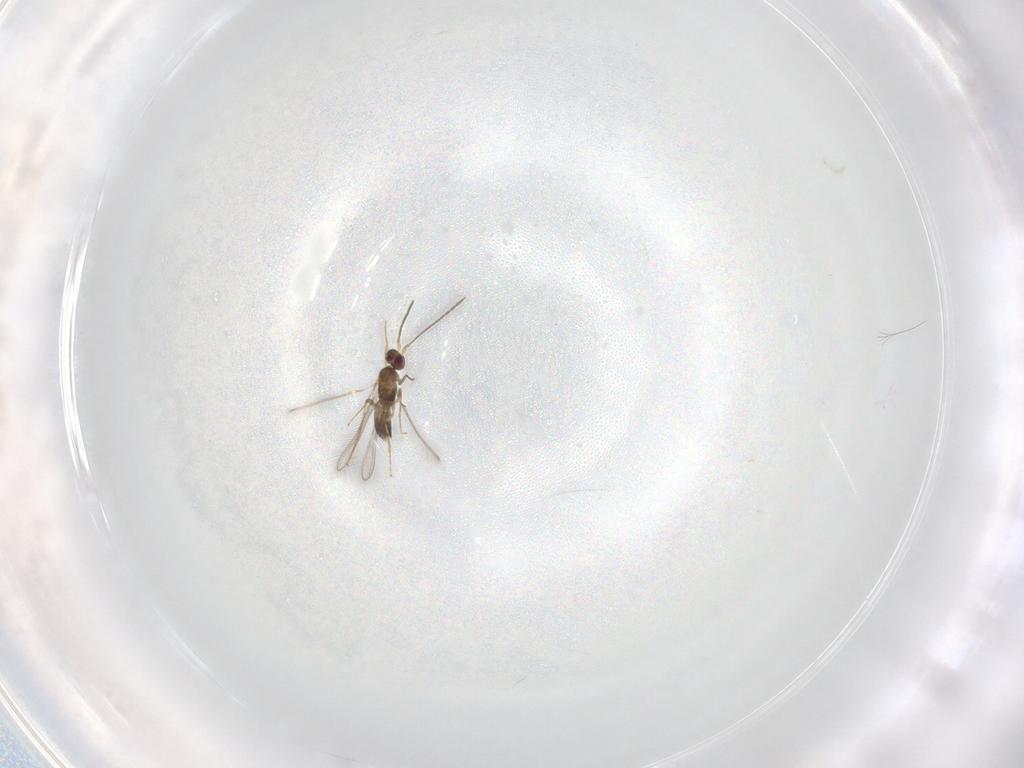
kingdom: Animalia
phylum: Arthropoda
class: Insecta
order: Hymenoptera
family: Mymaridae
